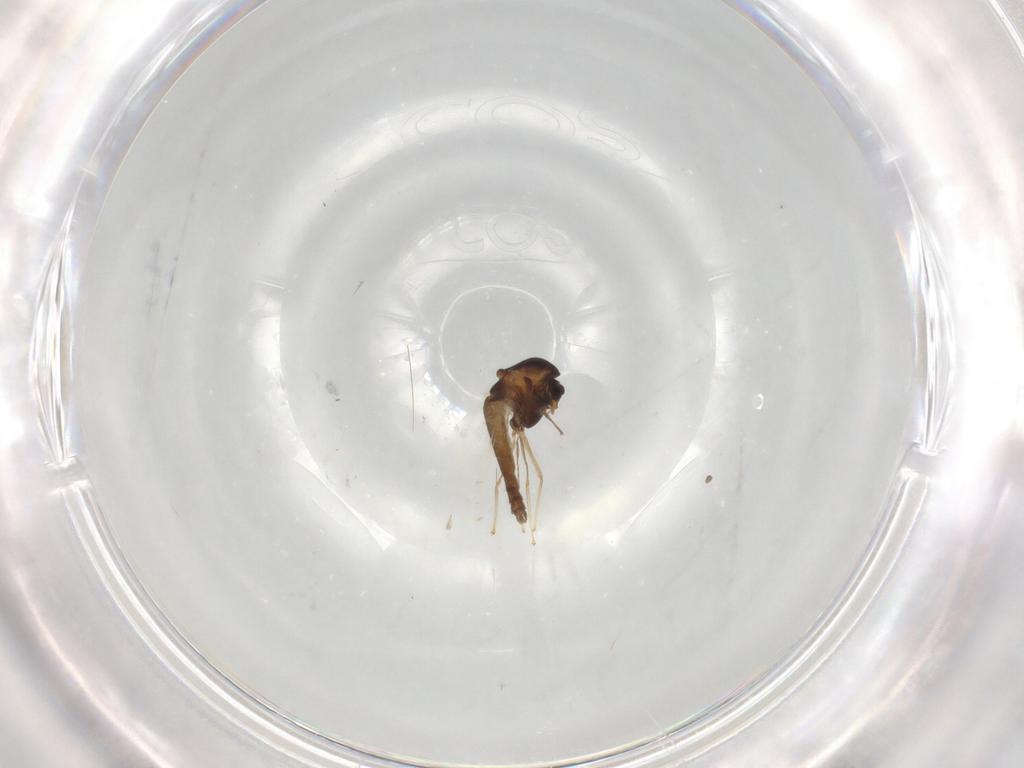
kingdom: Animalia
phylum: Arthropoda
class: Insecta
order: Diptera
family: Chironomidae
